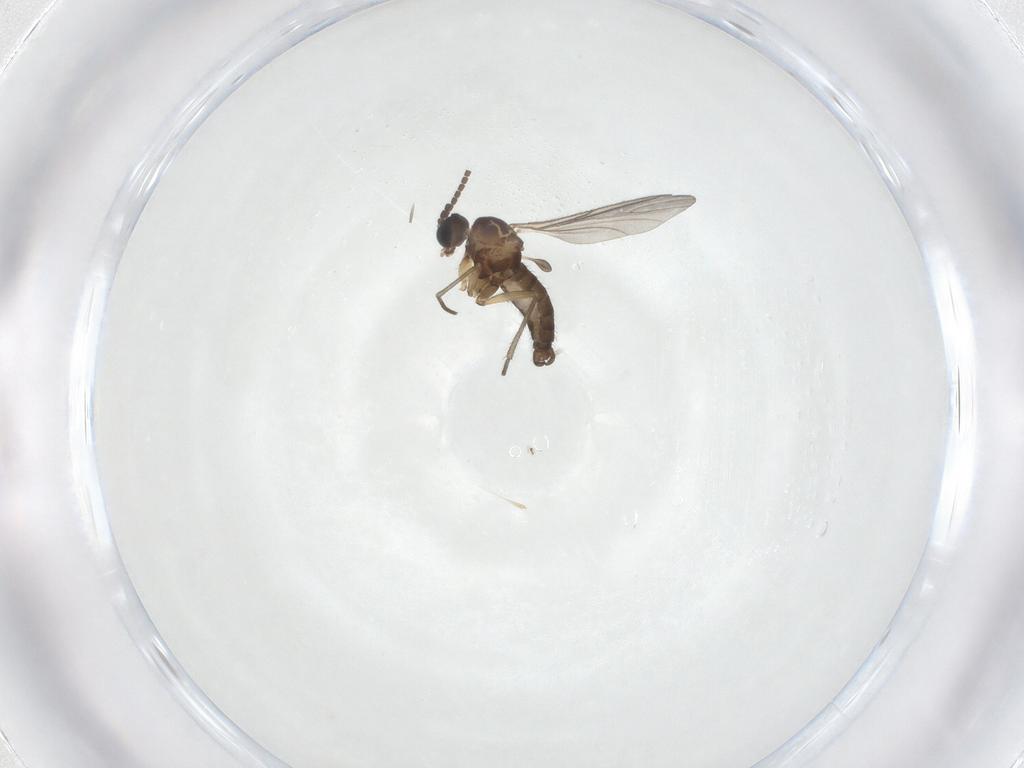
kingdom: Animalia
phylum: Arthropoda
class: Insecta
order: Diptera
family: Sciaridae
